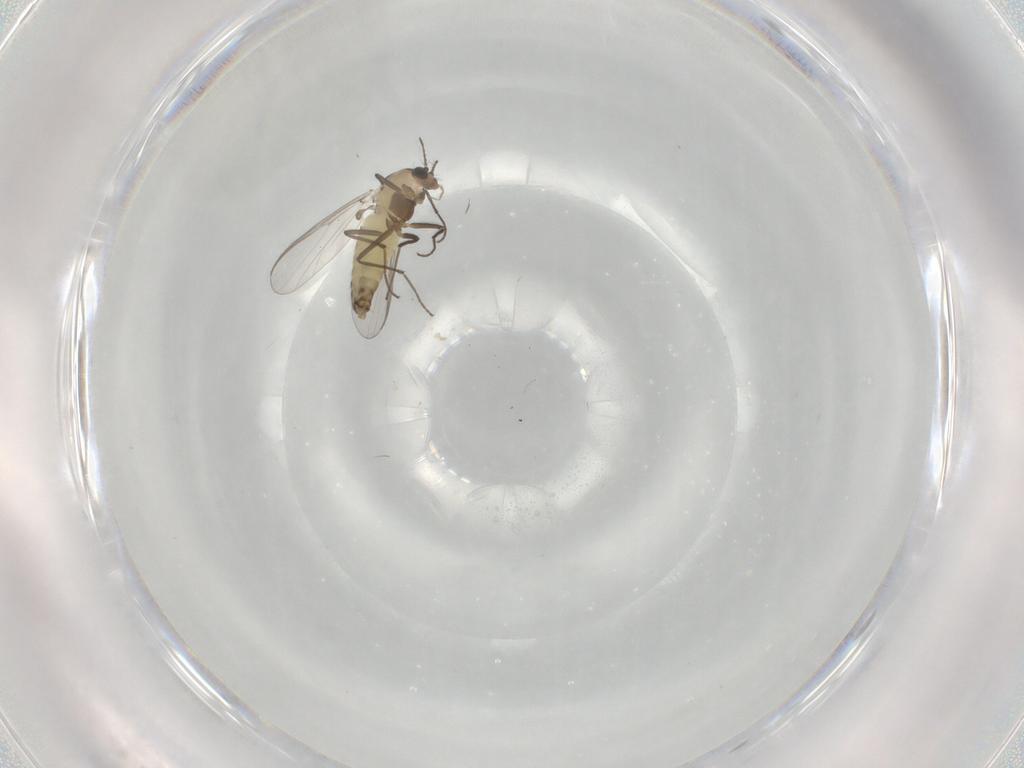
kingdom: Animalia
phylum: Arthropoda
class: Insecta
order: Diptera
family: Chironomidae
